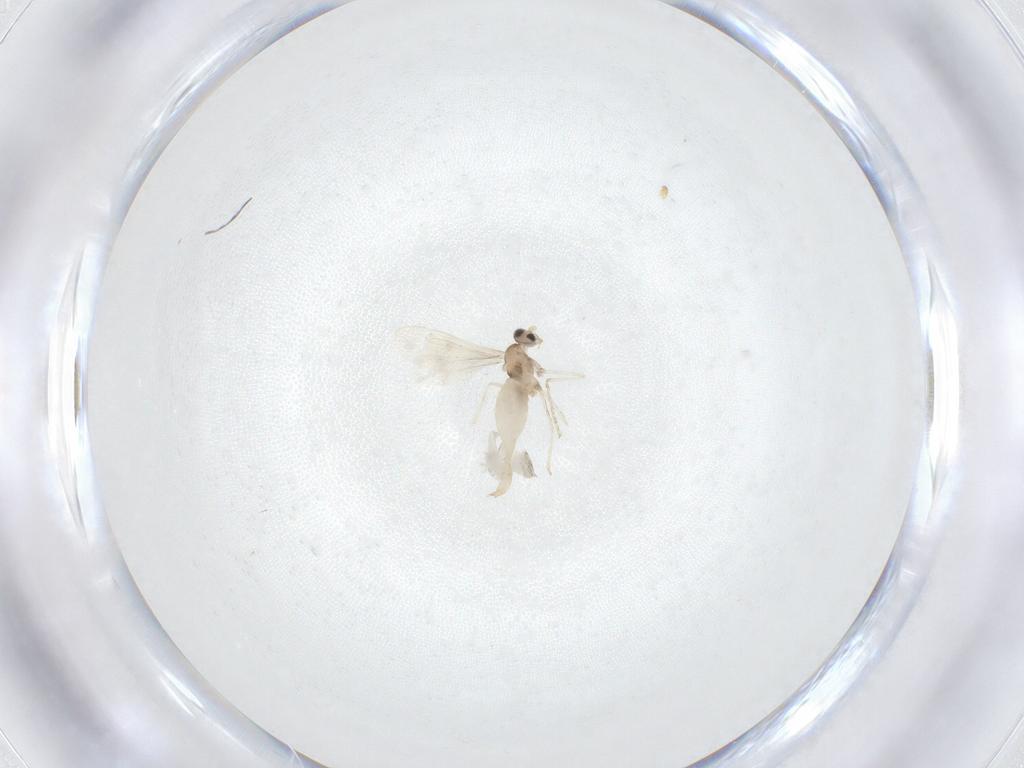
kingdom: Animalia
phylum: Arthropoda
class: Insecta
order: Diptera
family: Cecidomyiidae
